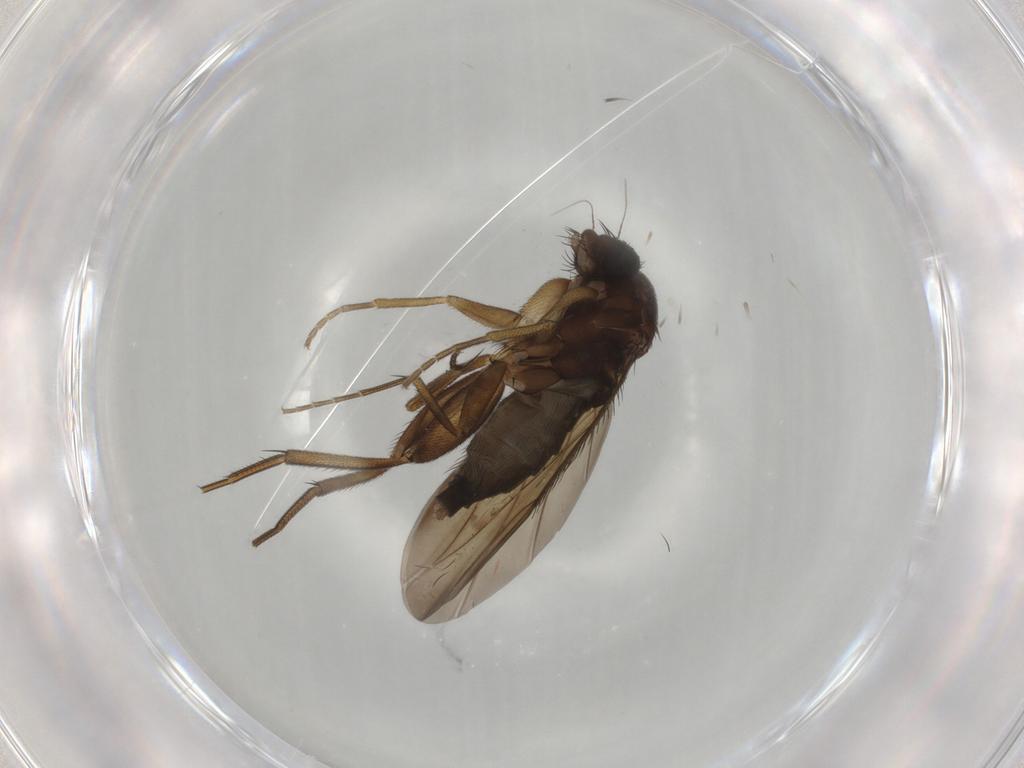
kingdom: Animalia
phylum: Arthropoda
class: Insecta
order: Diptera
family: Phoridae
